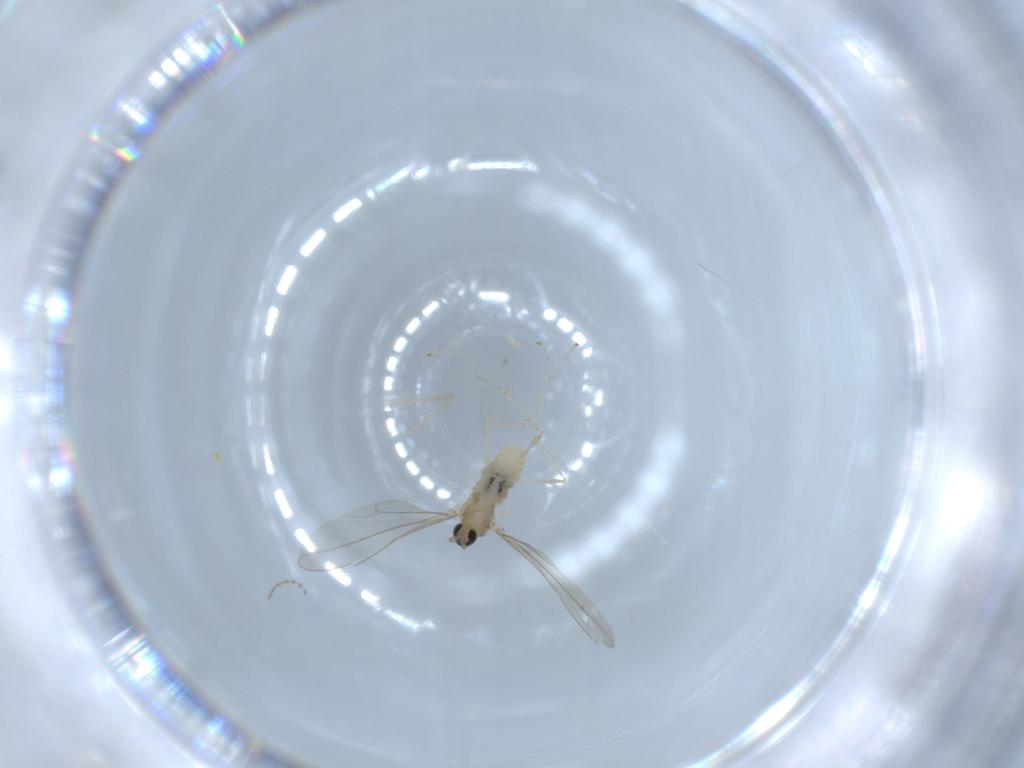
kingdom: Animalia
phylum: Arthropoda
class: Insecta
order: Diptera
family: Cecidomyiidae
